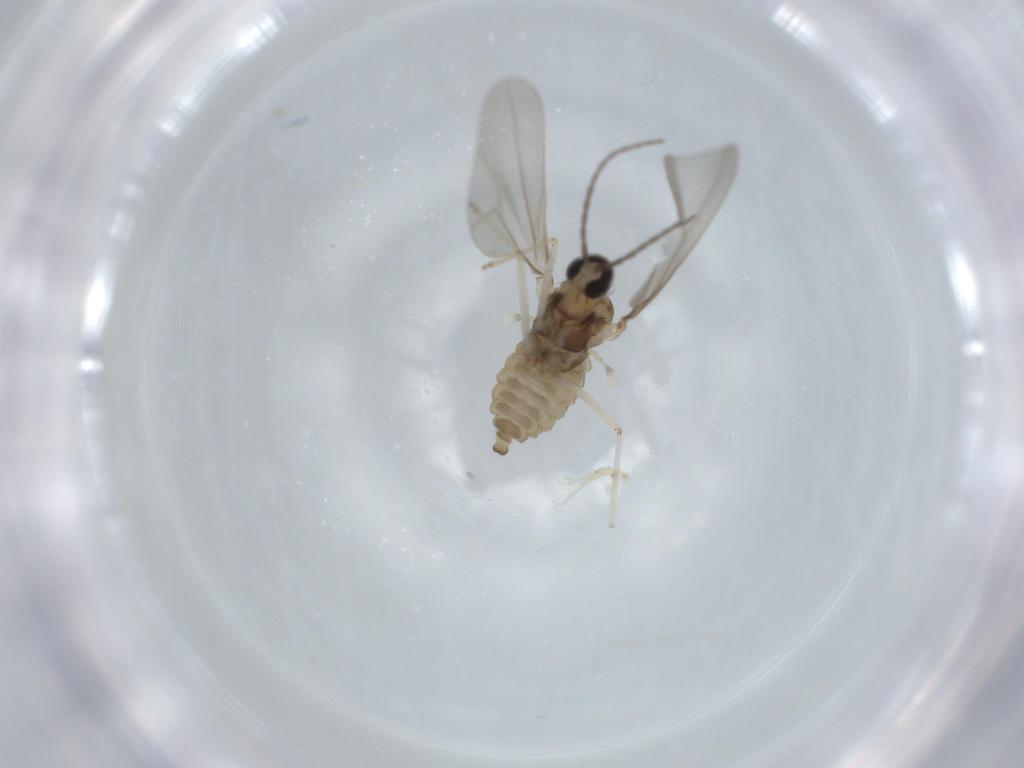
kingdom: Animalia
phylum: Arthropoda
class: Insecta
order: Diptera
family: Cecidomyiidae
